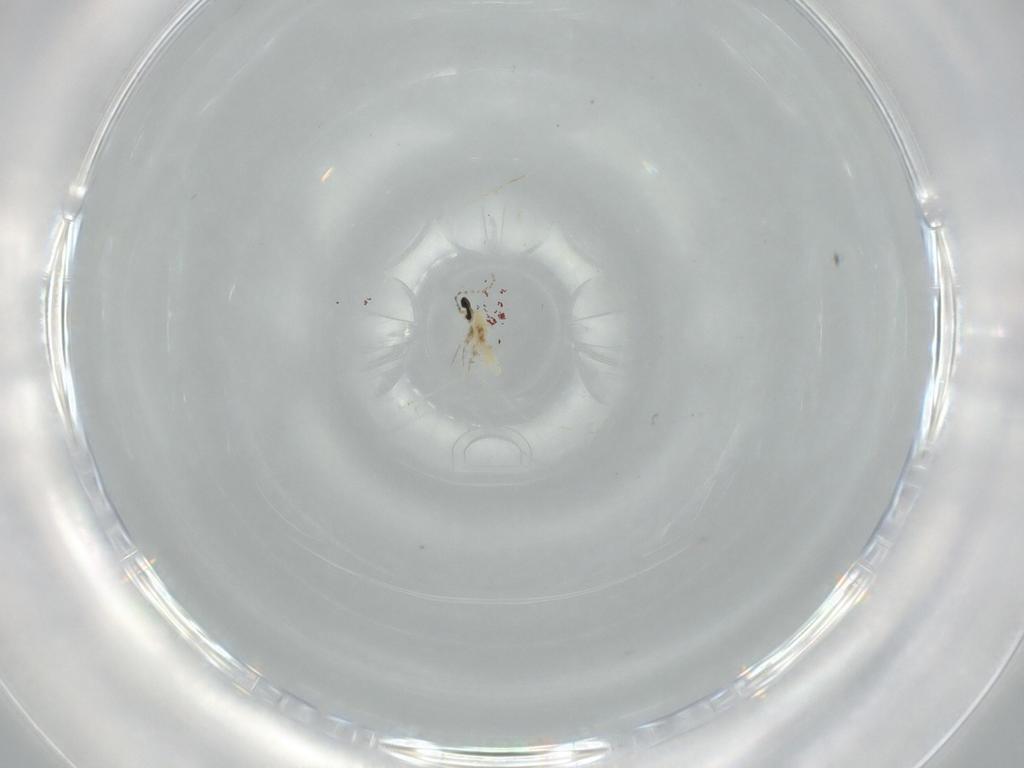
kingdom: Animalia
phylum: Arthropoda
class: Insecta
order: Diptera
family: Cecidomyiidae
